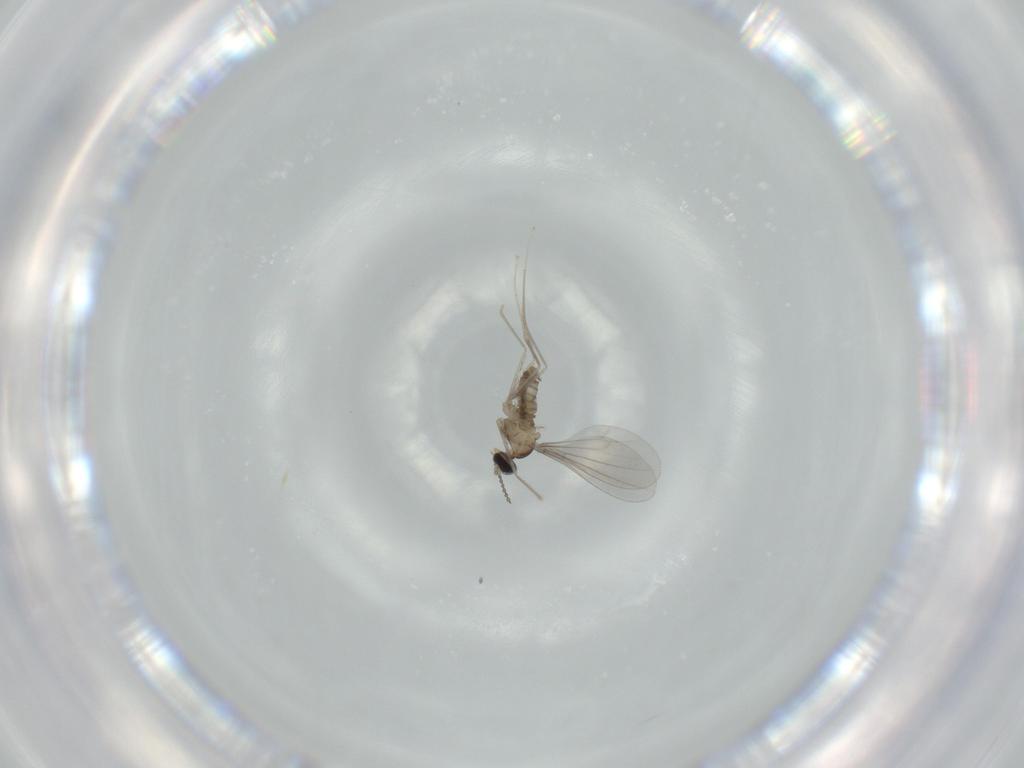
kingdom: Animalia
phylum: Arthropoda
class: Insecta
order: Diptera
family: Cecidomyiidae
